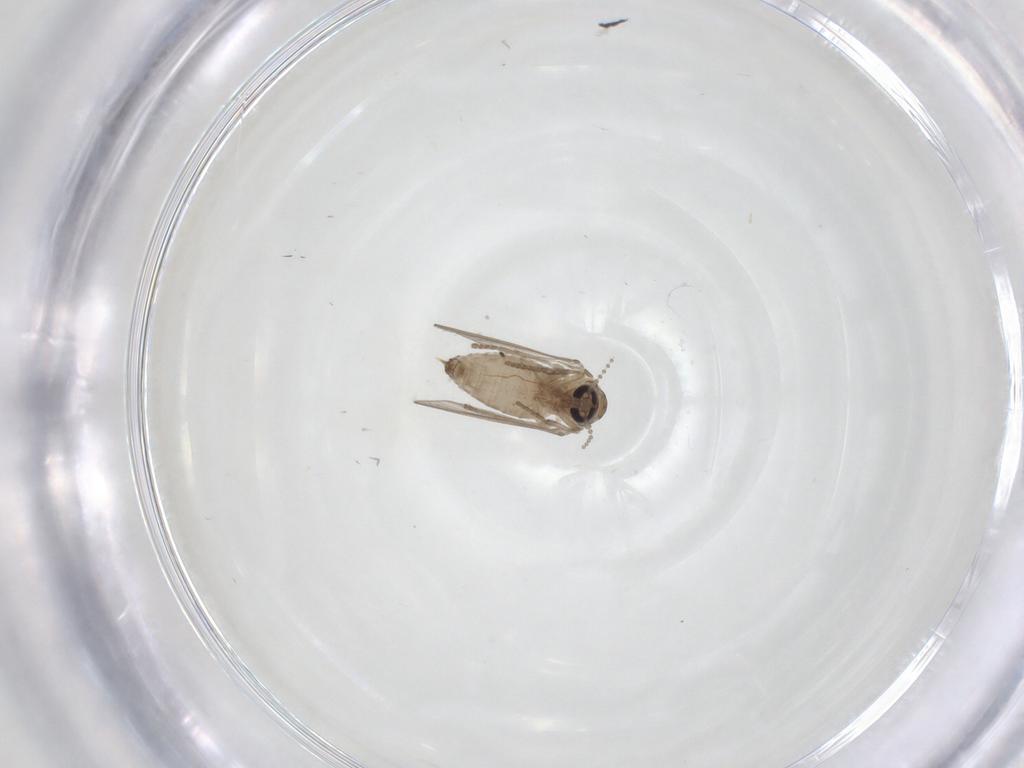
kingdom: Animalia
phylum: Arthropoda
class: Insecta
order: Diptera
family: Psychodidae
